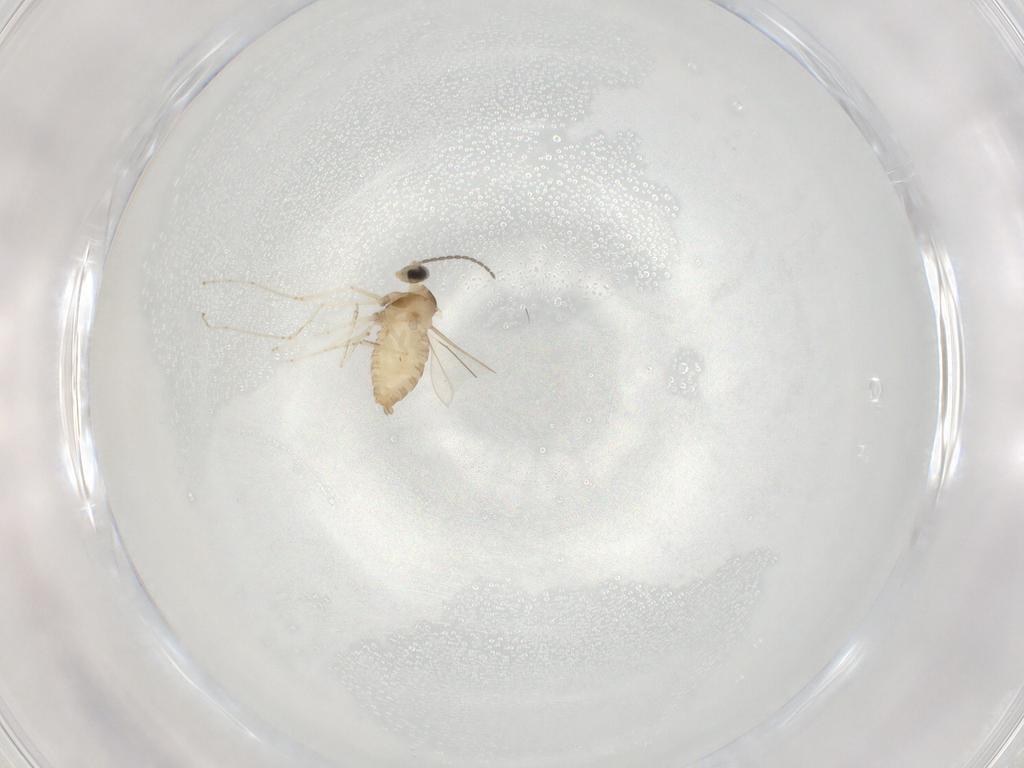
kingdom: Animalia
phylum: Arthropoda
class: Insecta
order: Diptera
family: Cecidomyiidae
